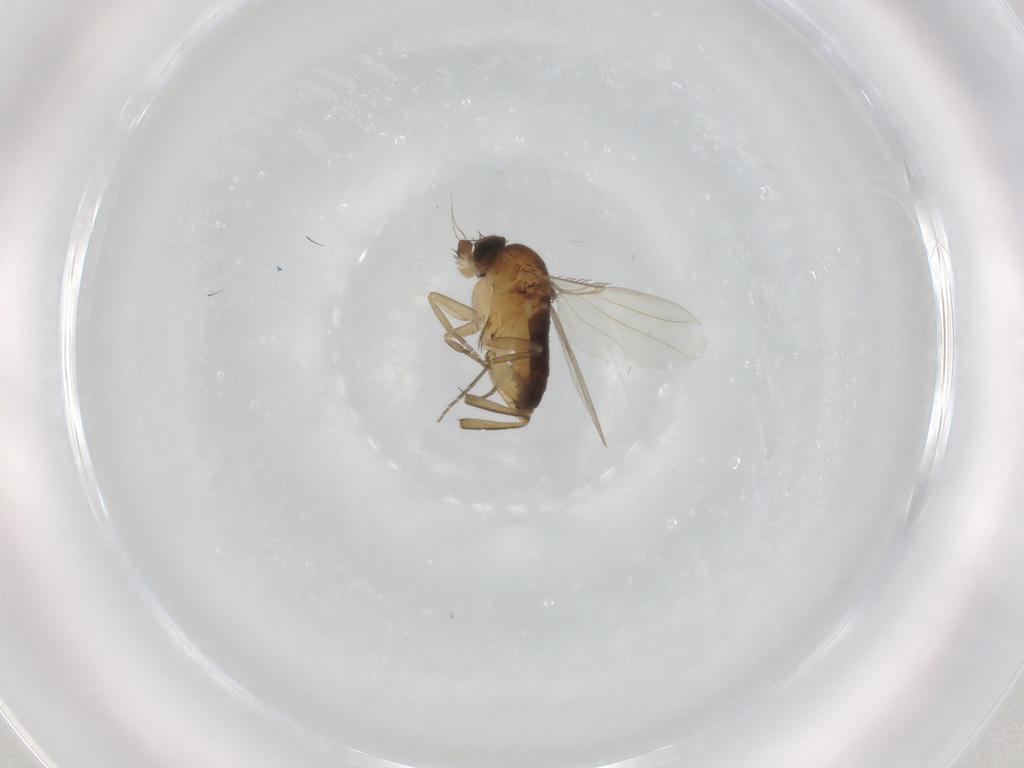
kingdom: Animalia
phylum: Arthropoda
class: Insecta
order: Diptera
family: Phoridae
